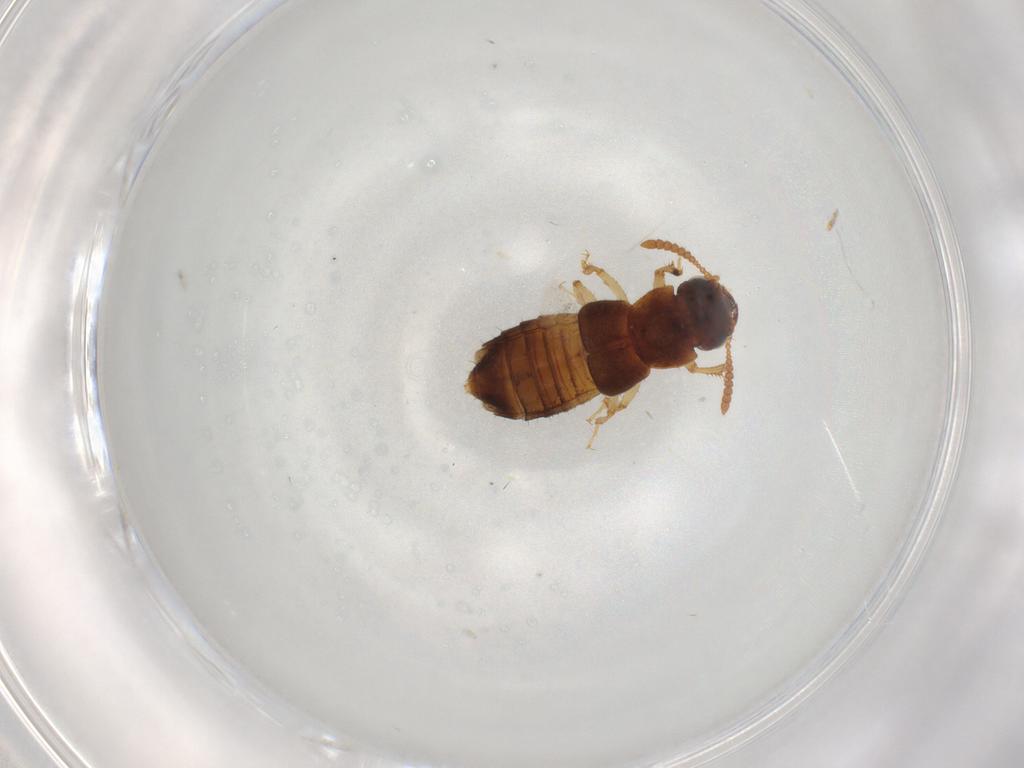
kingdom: Animalia
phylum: Arthropoda
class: Insecta
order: Coleoptera
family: Staphylinidae
